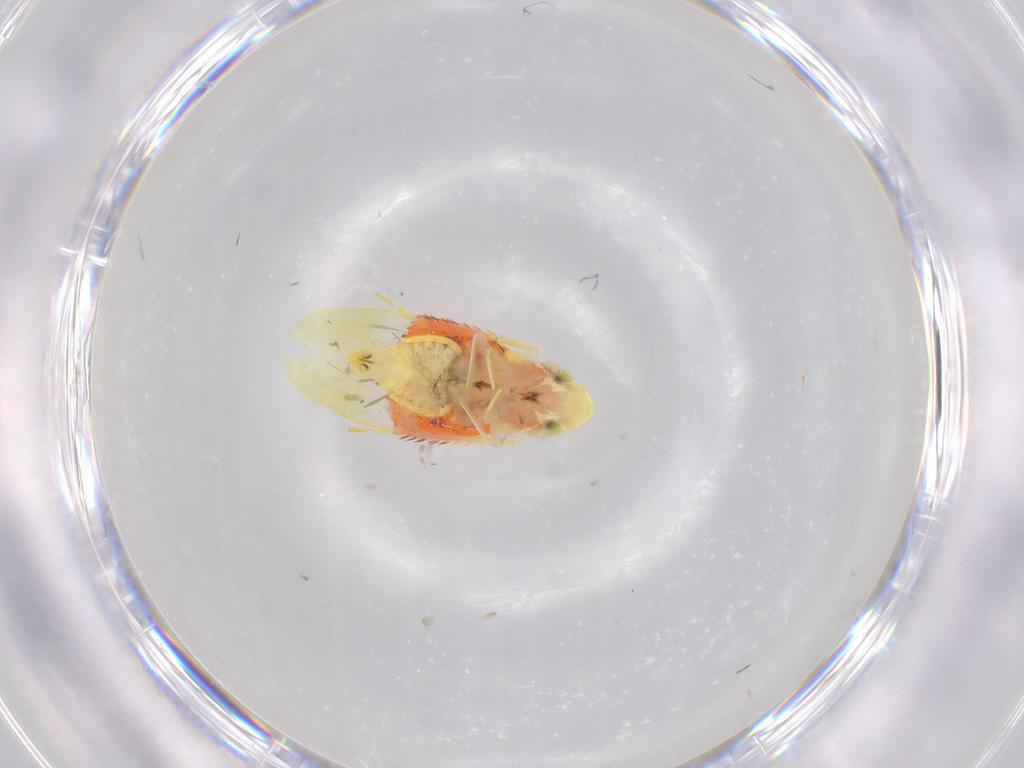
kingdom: Animalia
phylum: Arthropoda
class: Insecta
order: Hemiptera
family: Cicadellidae
